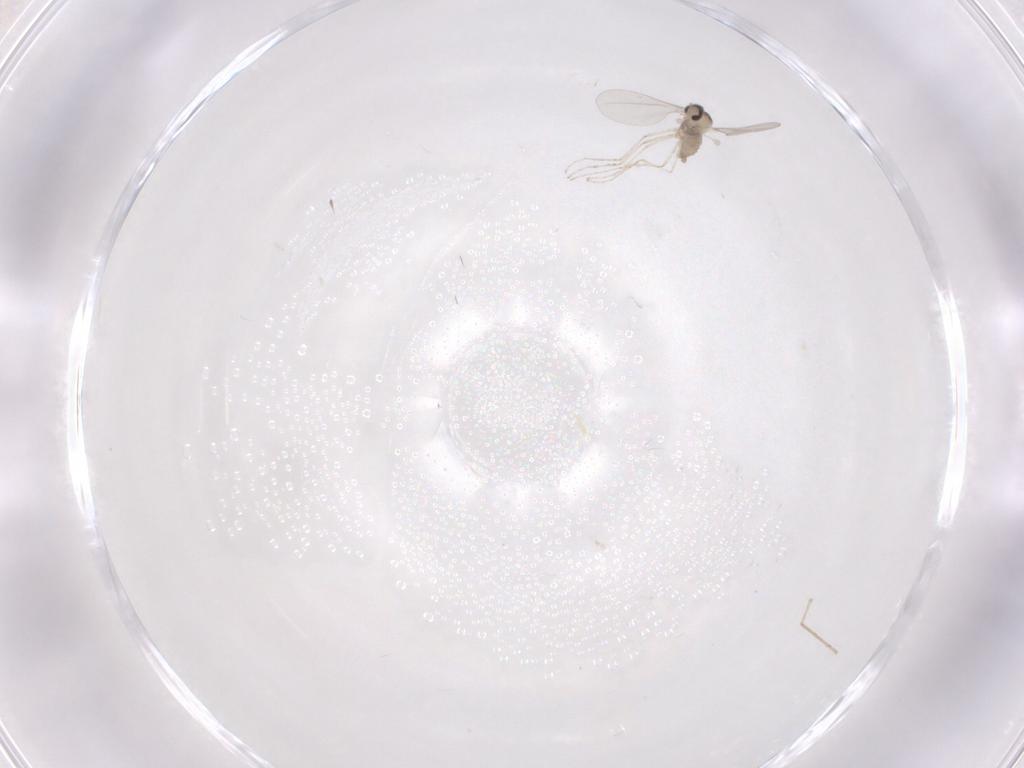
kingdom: Animalia
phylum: Arthropoda
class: Insecta
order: Diptera
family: Cecidomyiidae
